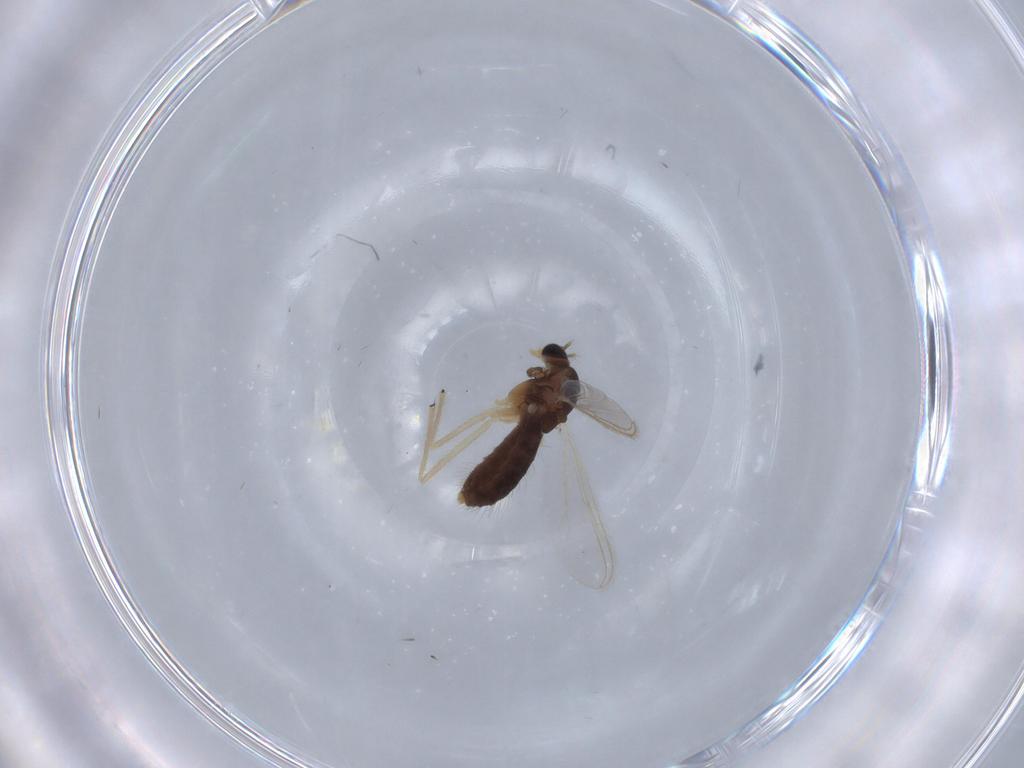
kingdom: Animalia
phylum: Arthropoda
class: Insecta
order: Diptera
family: Chironomidae
